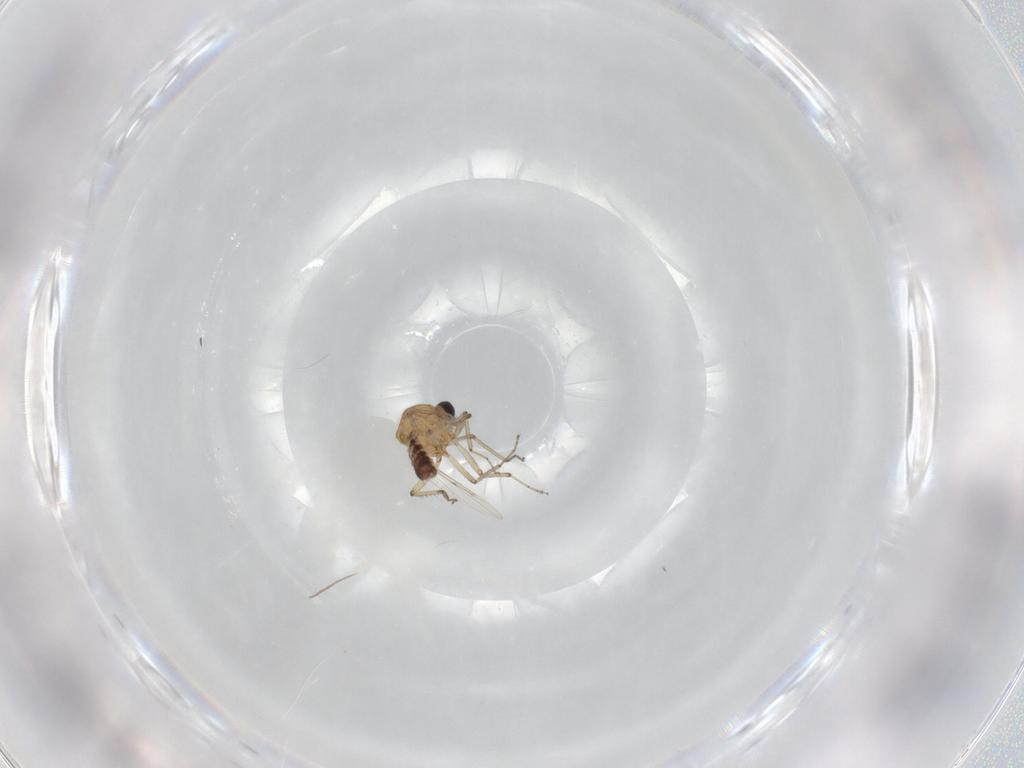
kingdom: Animalia
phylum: Arthropoda
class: Insecta
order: Diptera
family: Ceratopogonidae
